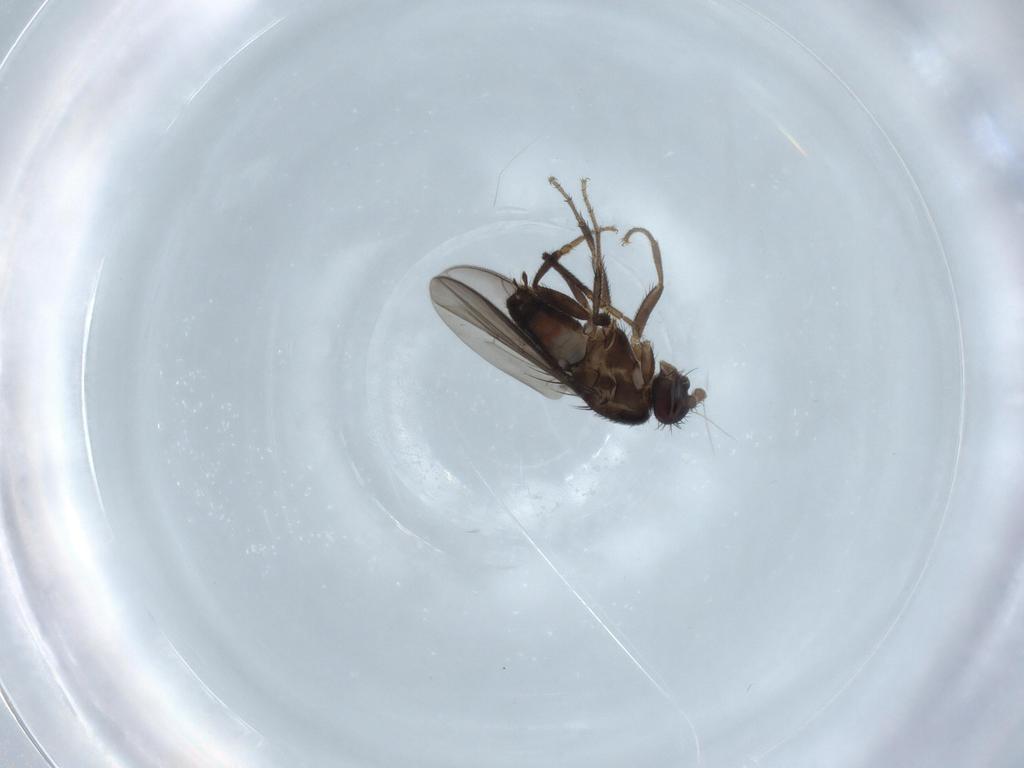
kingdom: Animalia
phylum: Arthropoda
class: Insecta
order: Diptera
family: Sphaeroceridae
